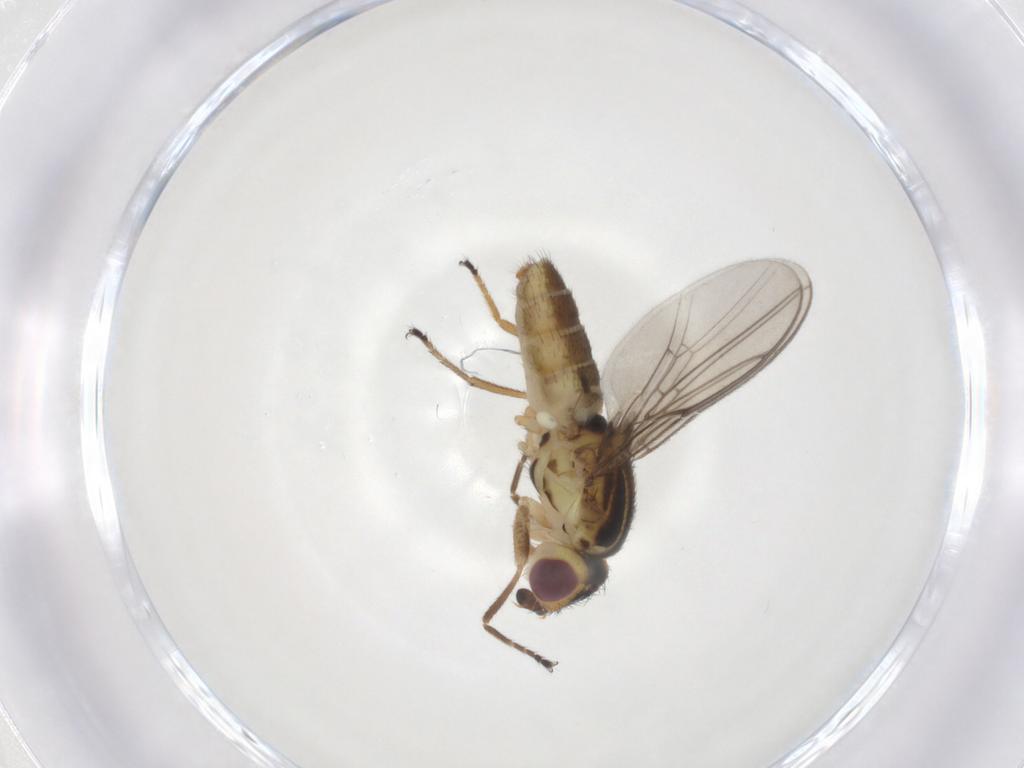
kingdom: Animalia
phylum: Arthropoda
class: Insecta
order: Diptera
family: Chloropidae
